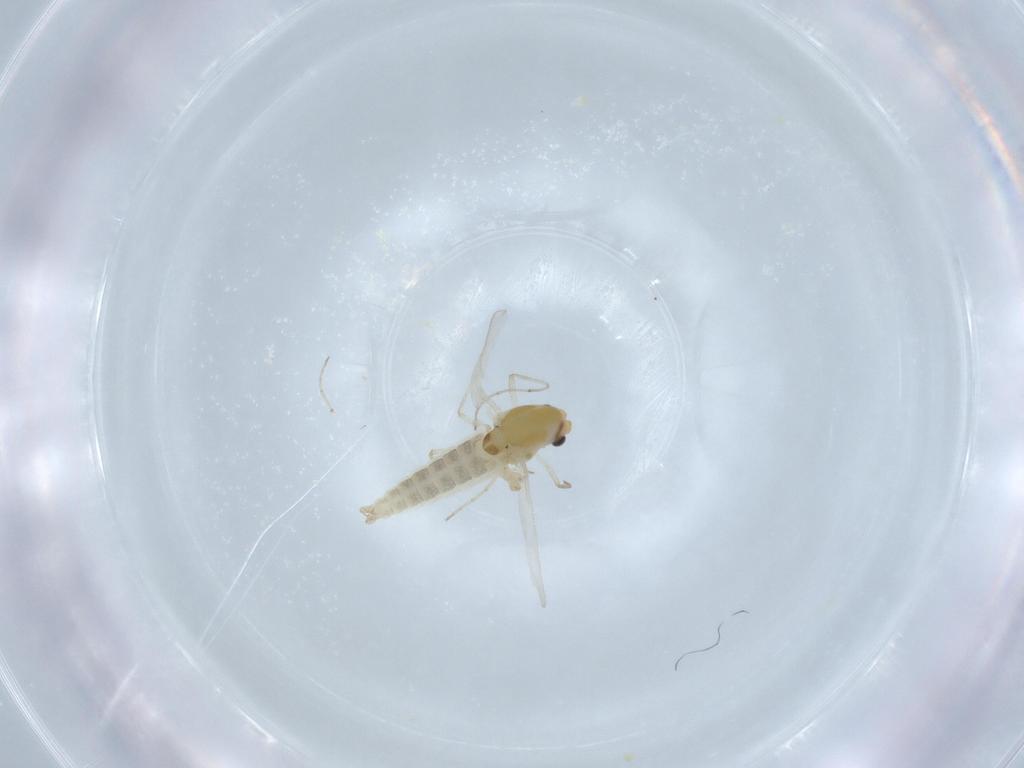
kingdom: Animalia
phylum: Arthropoda
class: Insecta
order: Diptera
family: Chironomidae
